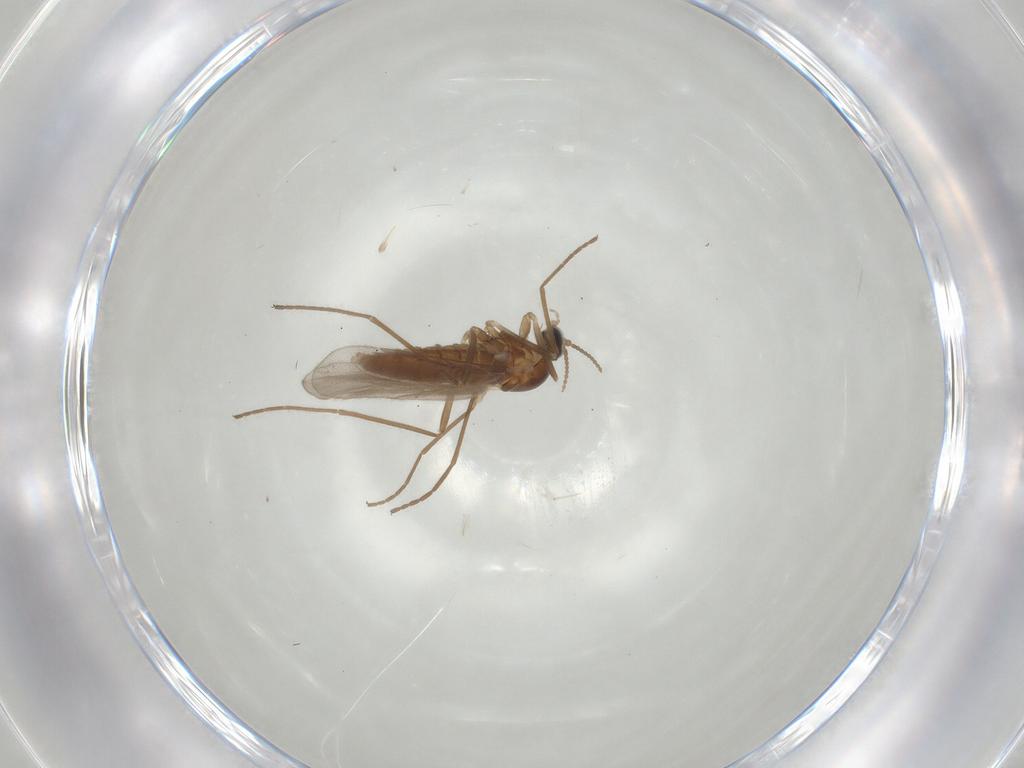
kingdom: Animalia
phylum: Arthropoda
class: Insecta
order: Diptera
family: Cecidomyiidae
